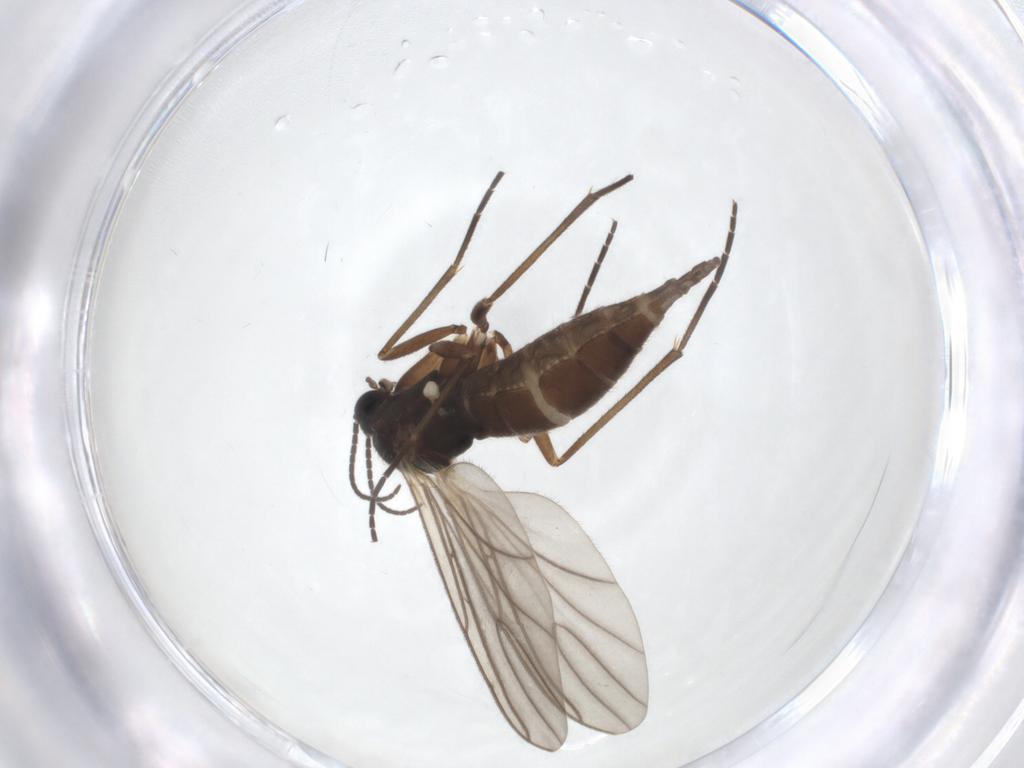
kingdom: Animalia
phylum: Arthropoda
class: Insecta
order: Diptera
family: Sciaridae
